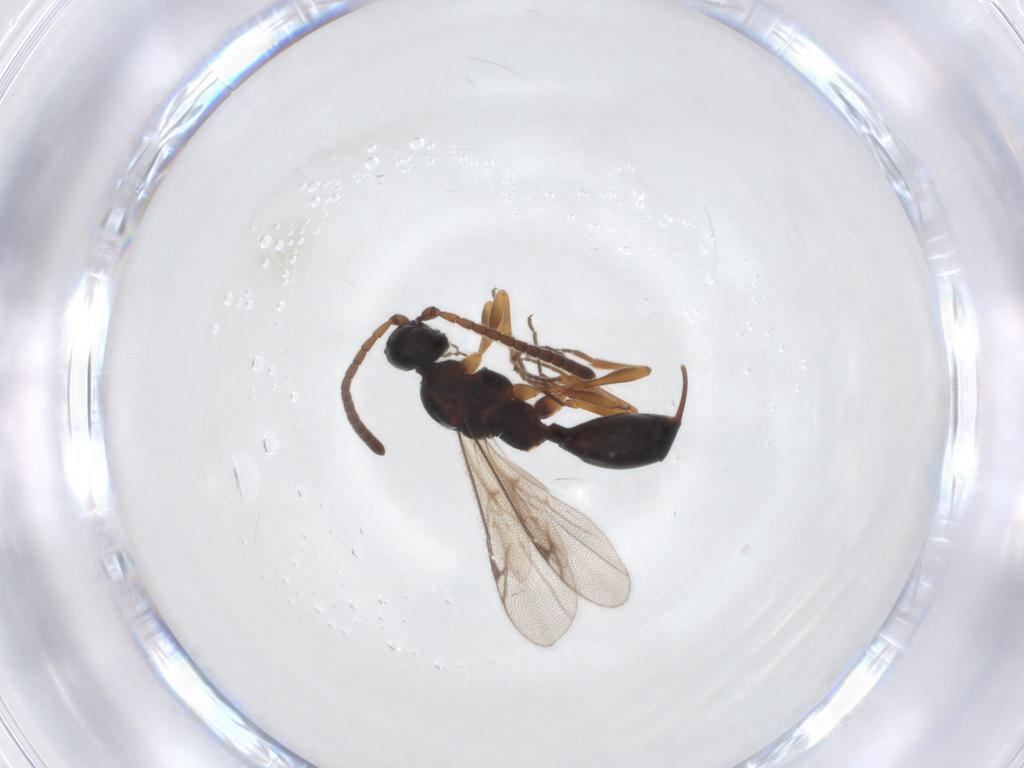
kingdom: Animalia
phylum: Arthropoda
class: Insecta
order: Hymenoptera
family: Proctotrupidae
